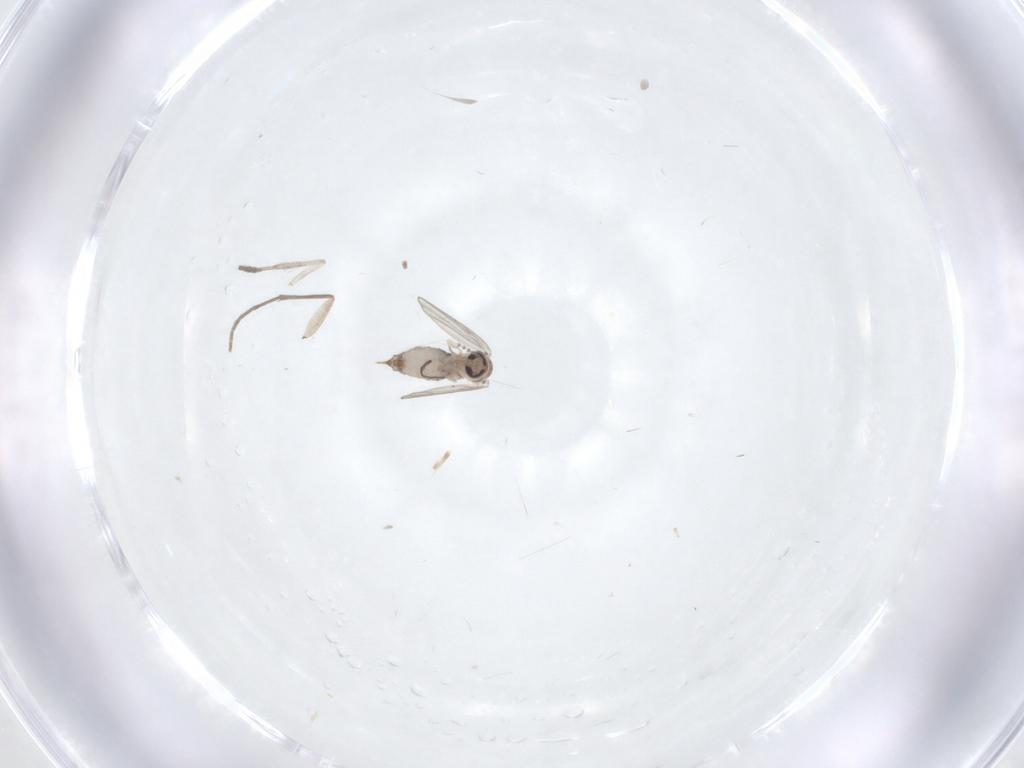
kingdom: Animalia
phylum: Arthropoda
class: Insecta
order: Diptera
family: Psychodidae
